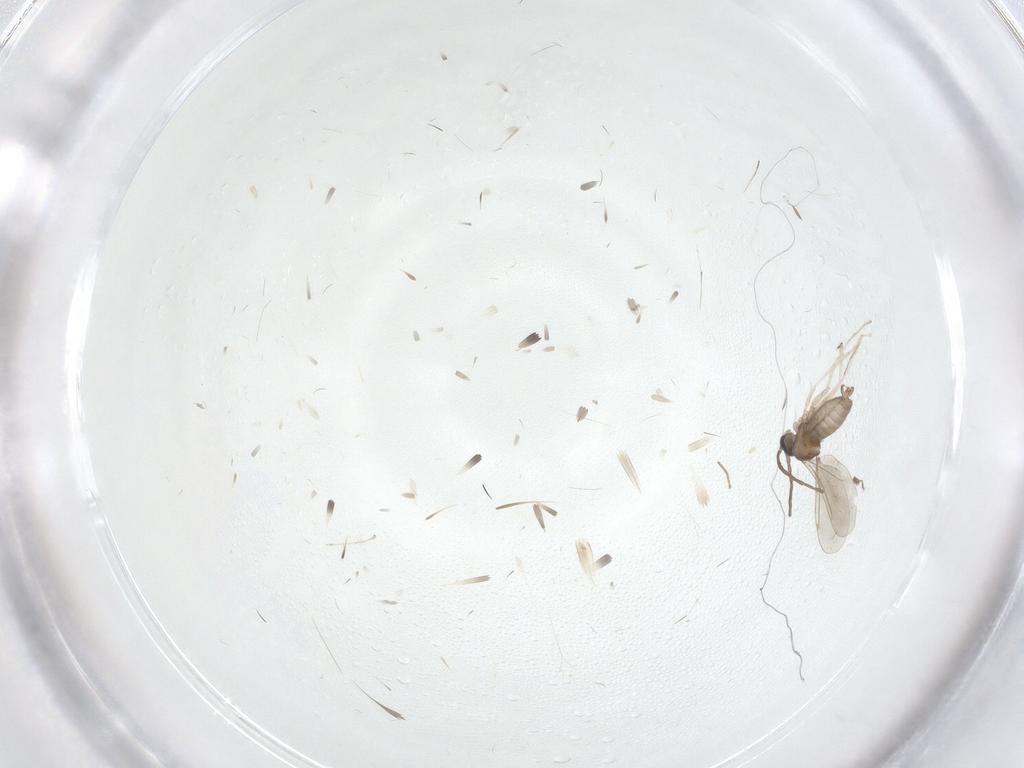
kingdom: Animalia
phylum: Arthropoda
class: Insecta
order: Diptera
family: Cecidomyiidae
